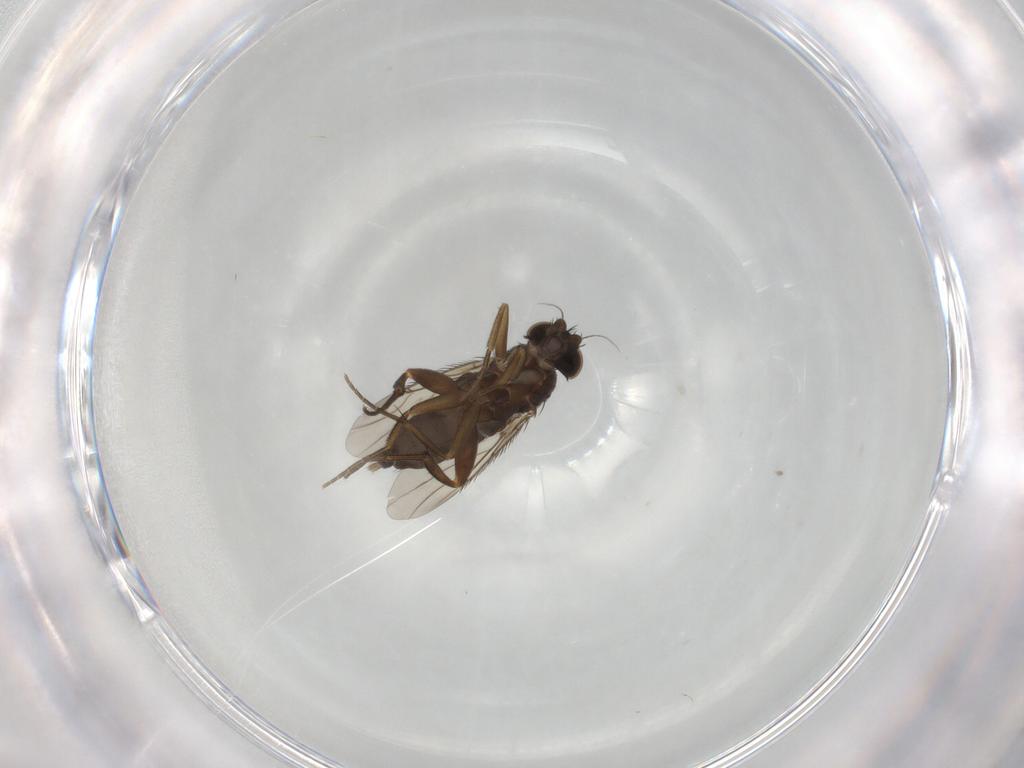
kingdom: Animalia
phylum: Arthropoda
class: Insecta
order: Diptera
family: Phoridae
